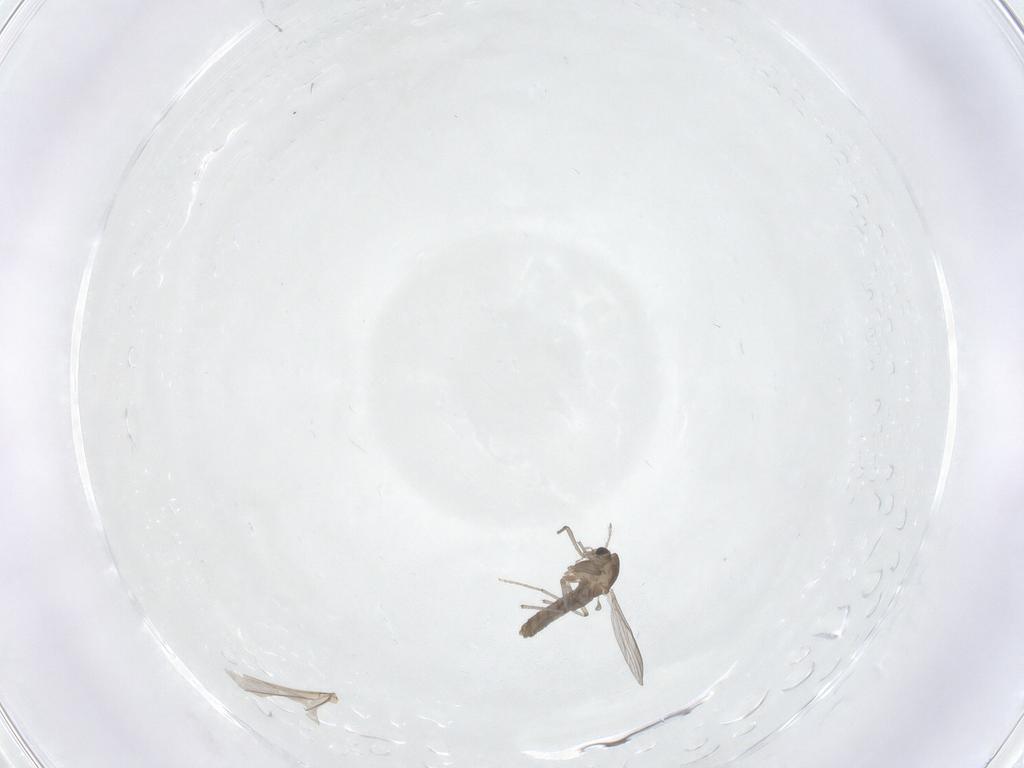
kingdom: Animalia
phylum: Arthropoda
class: Insecta
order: Diptera
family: Chironomidae
